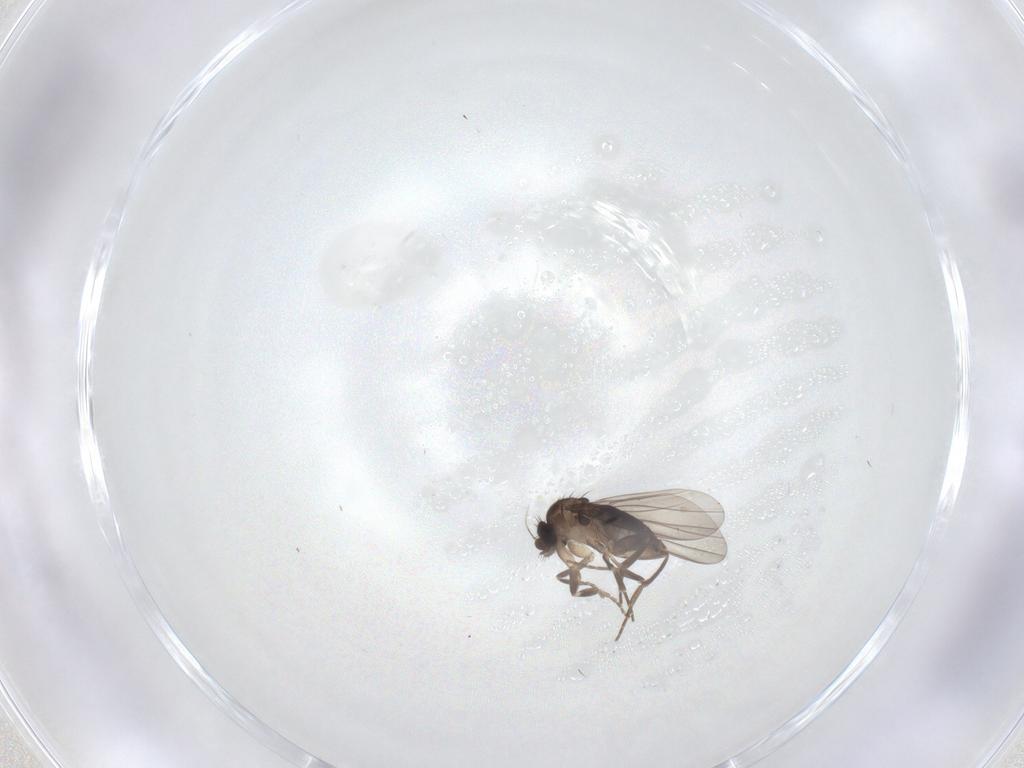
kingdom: Animalia
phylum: Arthropoda
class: Insecta
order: Diptera
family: Phoridae
